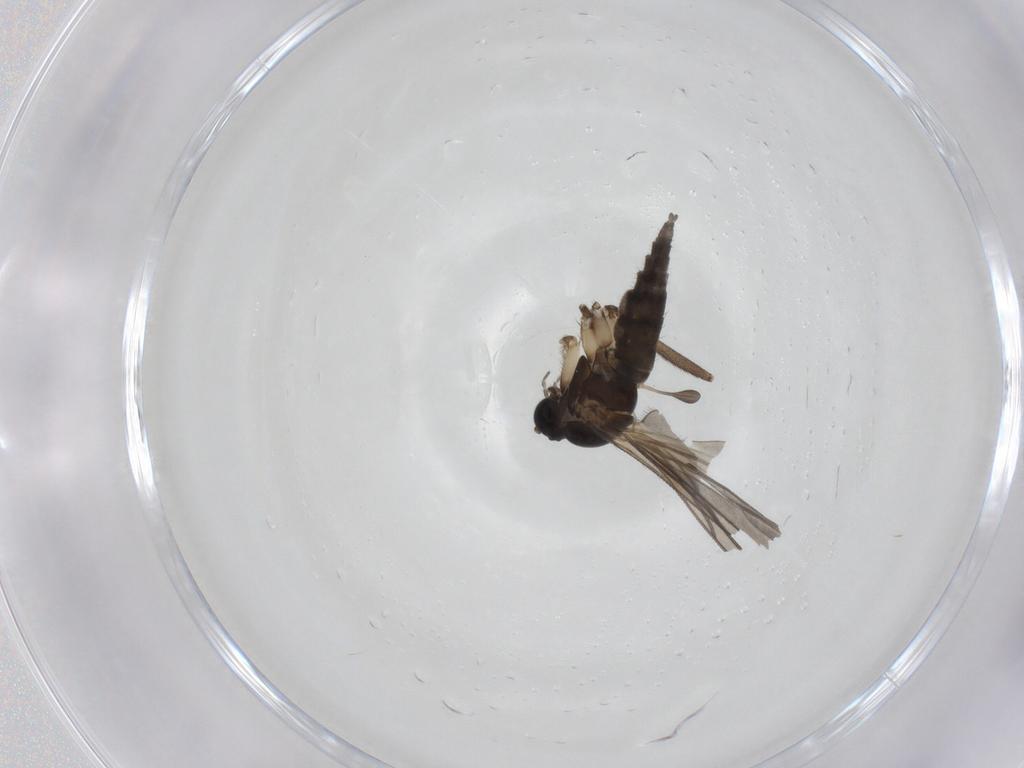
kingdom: Animalia
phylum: Arthropoda
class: Insecta
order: Diptera
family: Sciaridae
